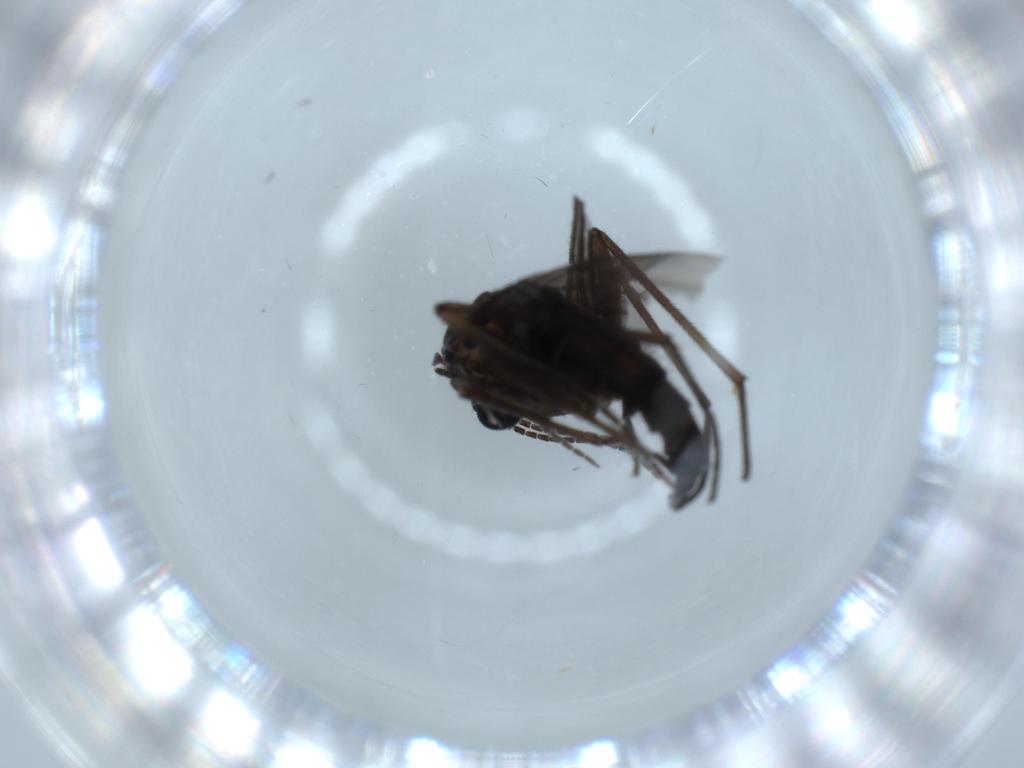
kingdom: Animalia
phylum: Arthropoda
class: Insecta
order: Diptera
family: Sciaridae
